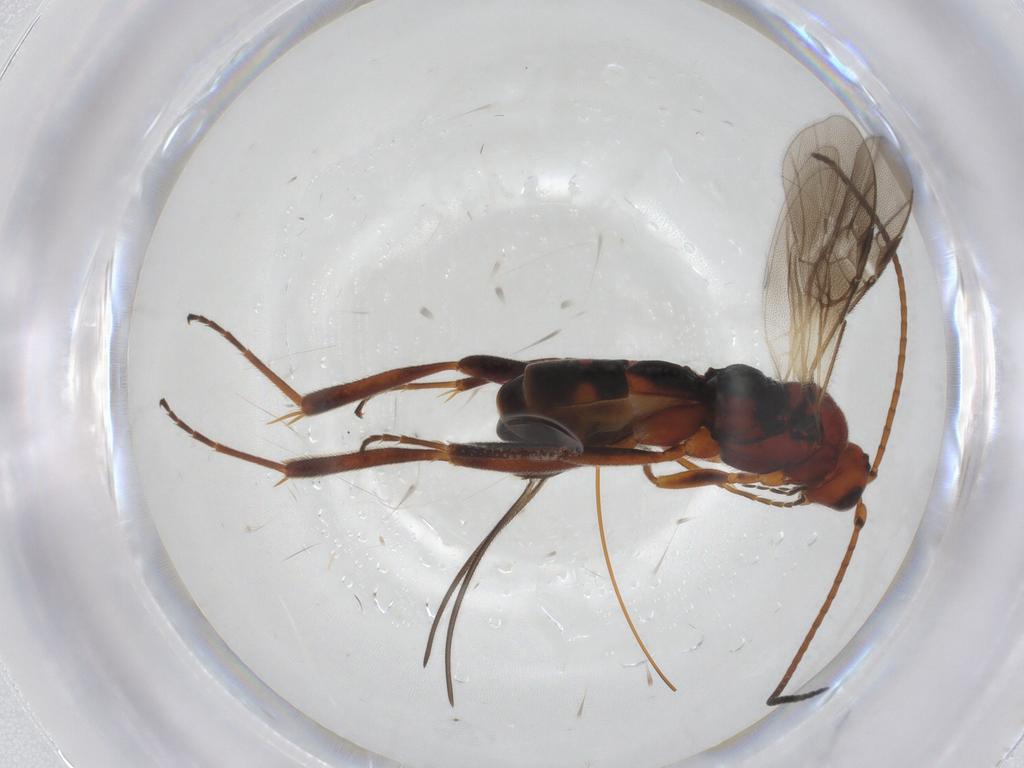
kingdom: Animalia
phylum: Arthropoda
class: Insecta
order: Hymenoptera
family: Braconidae
